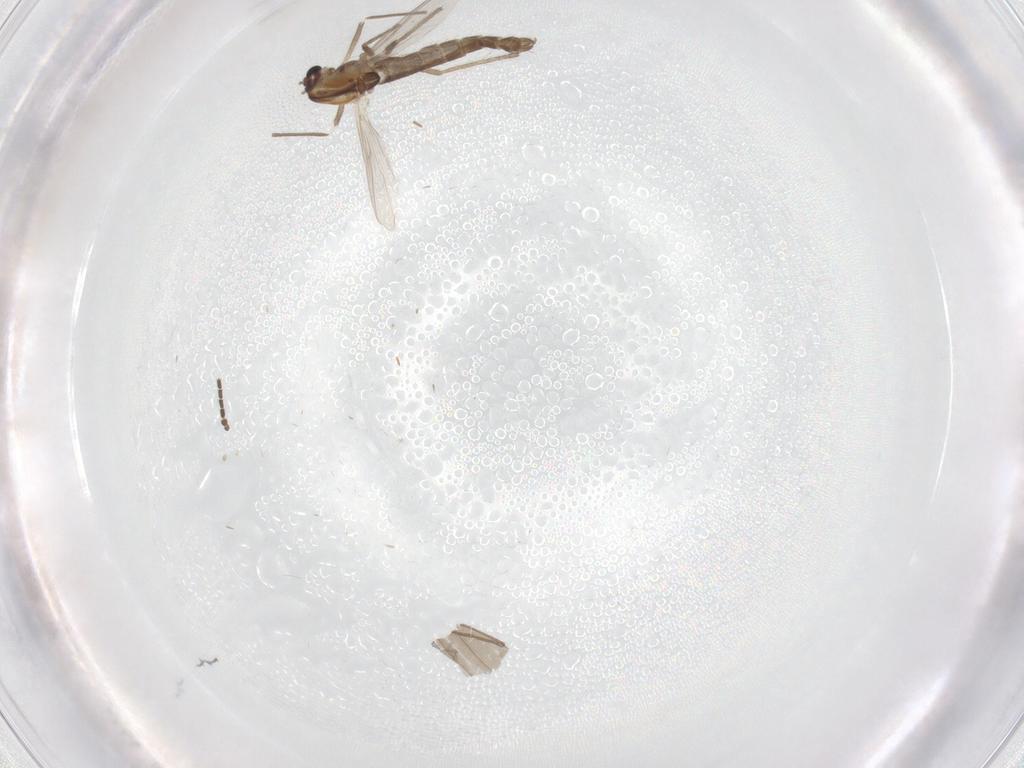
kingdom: Animalia
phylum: Arthropoda
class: Insecta
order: Diptera
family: Chironomidae
